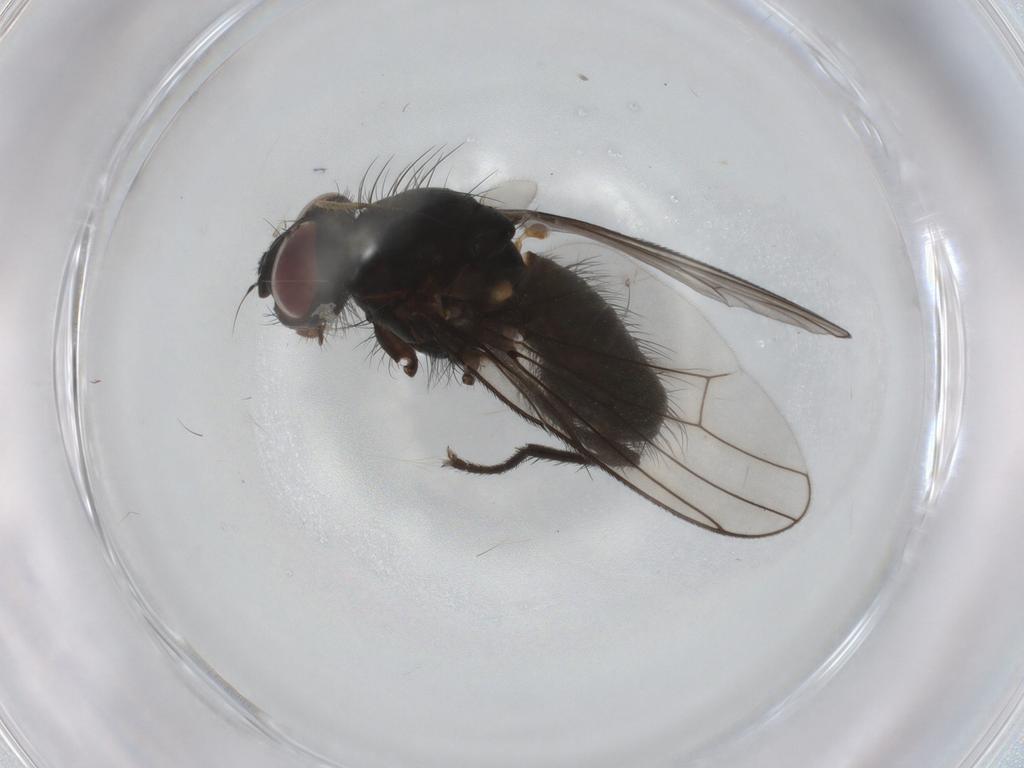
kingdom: Animalia
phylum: Arthropoda
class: Insecta
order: Diptera
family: Anthomyiidae
